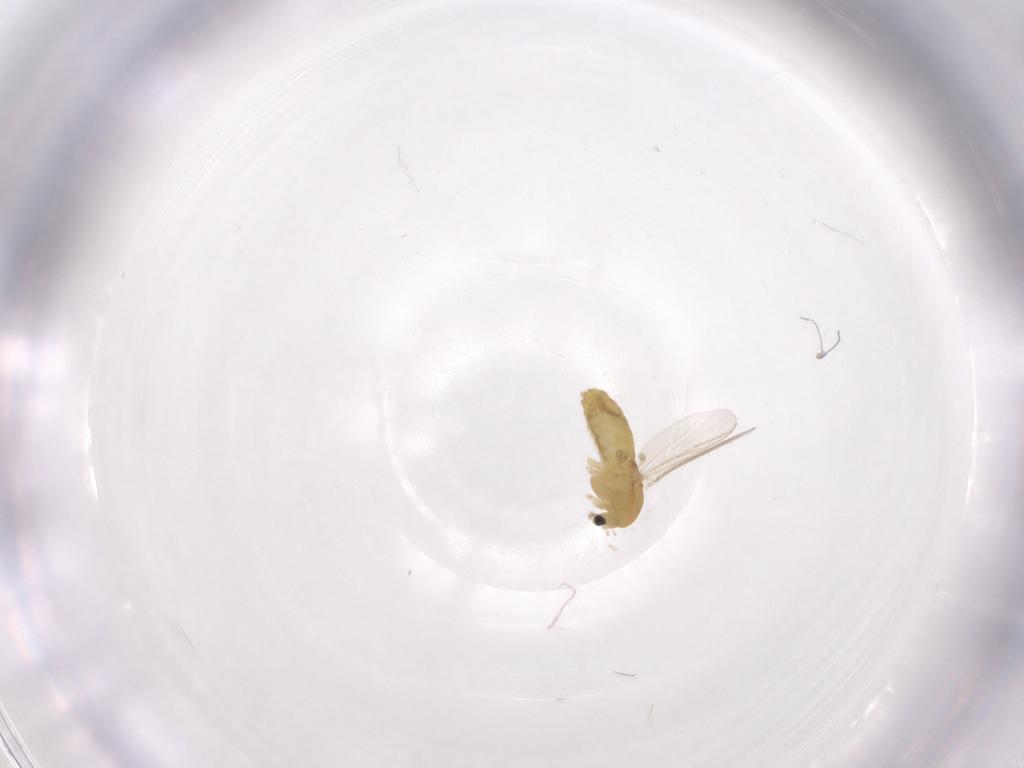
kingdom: Animalia
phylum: Arthropoda
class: Insecta
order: Diptera
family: Chironomidae
